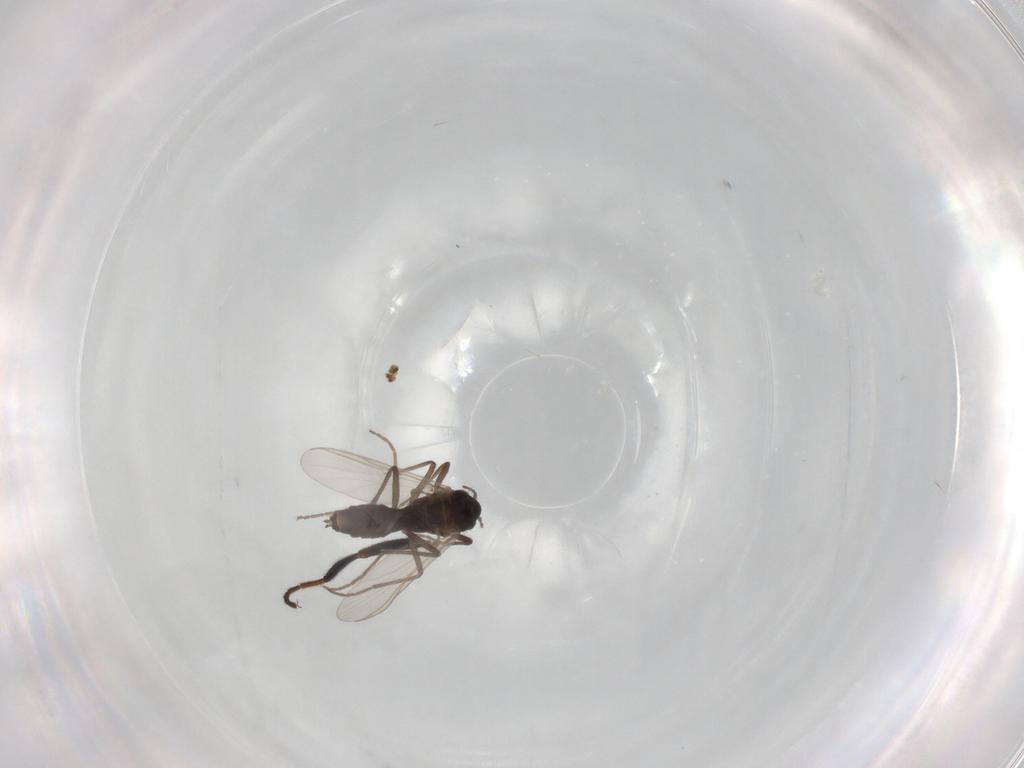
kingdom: Animalia
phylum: Arthropoda
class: Insecta
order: Diptera
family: Chironomidae
